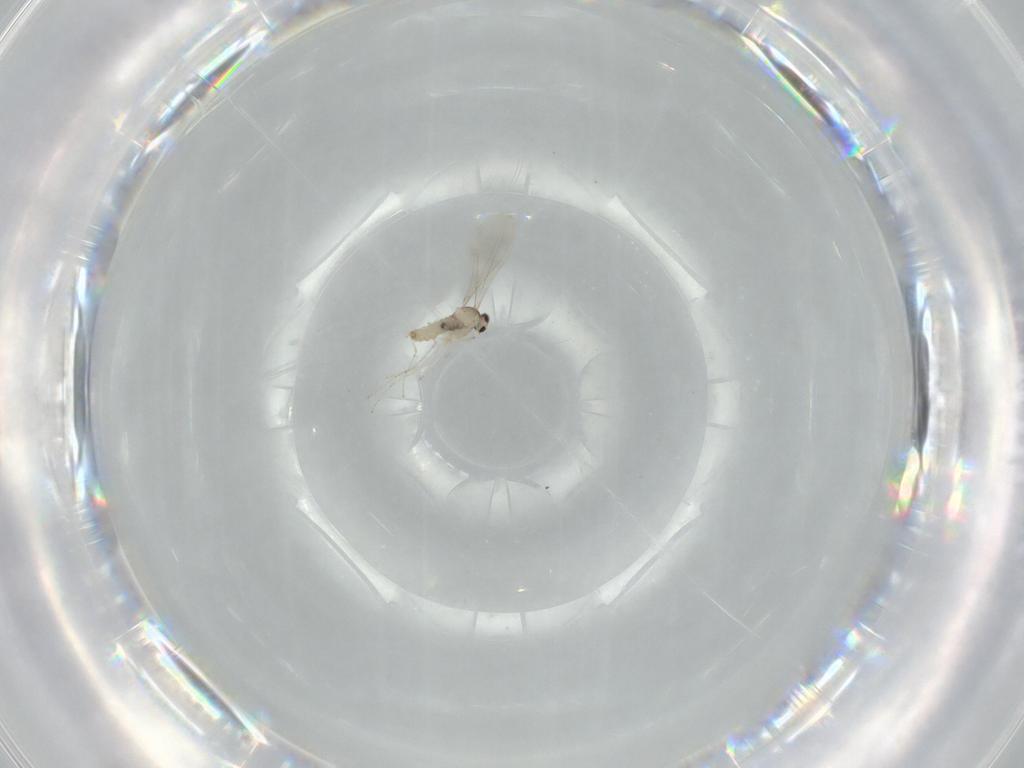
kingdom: Animalia
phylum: Arthropoda
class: Insecta
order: Diptera
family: Cecidomyiidae
